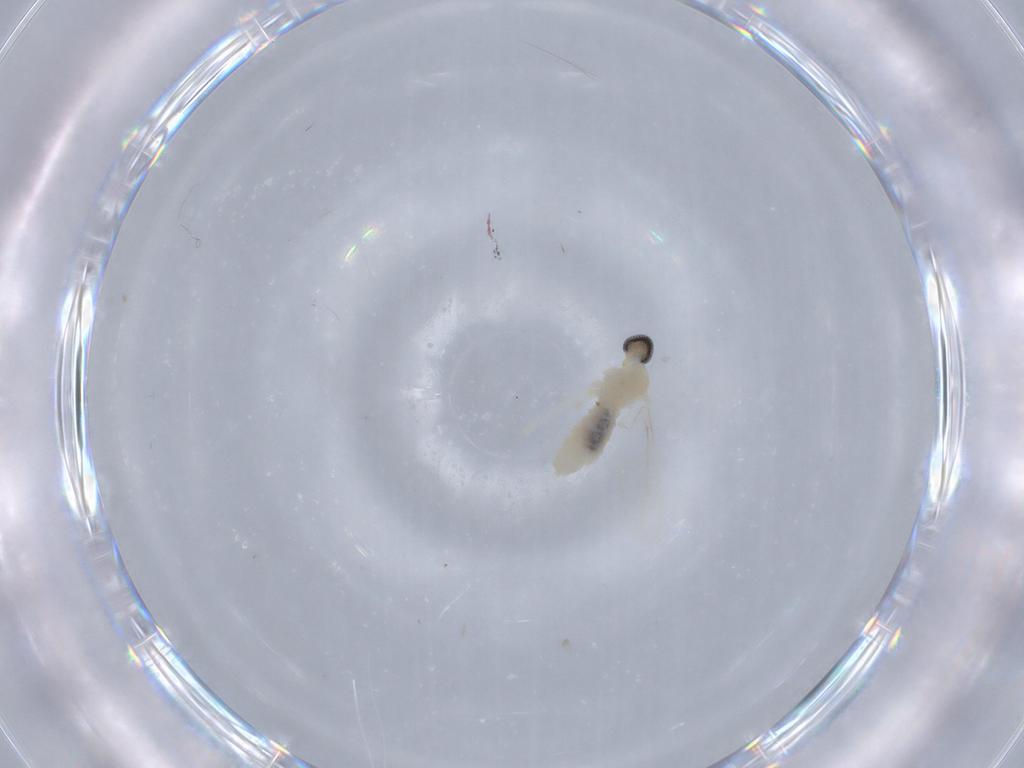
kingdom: Animalia
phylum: Arthropoda
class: Insecta
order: Diptera
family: Cecidomyiidae
